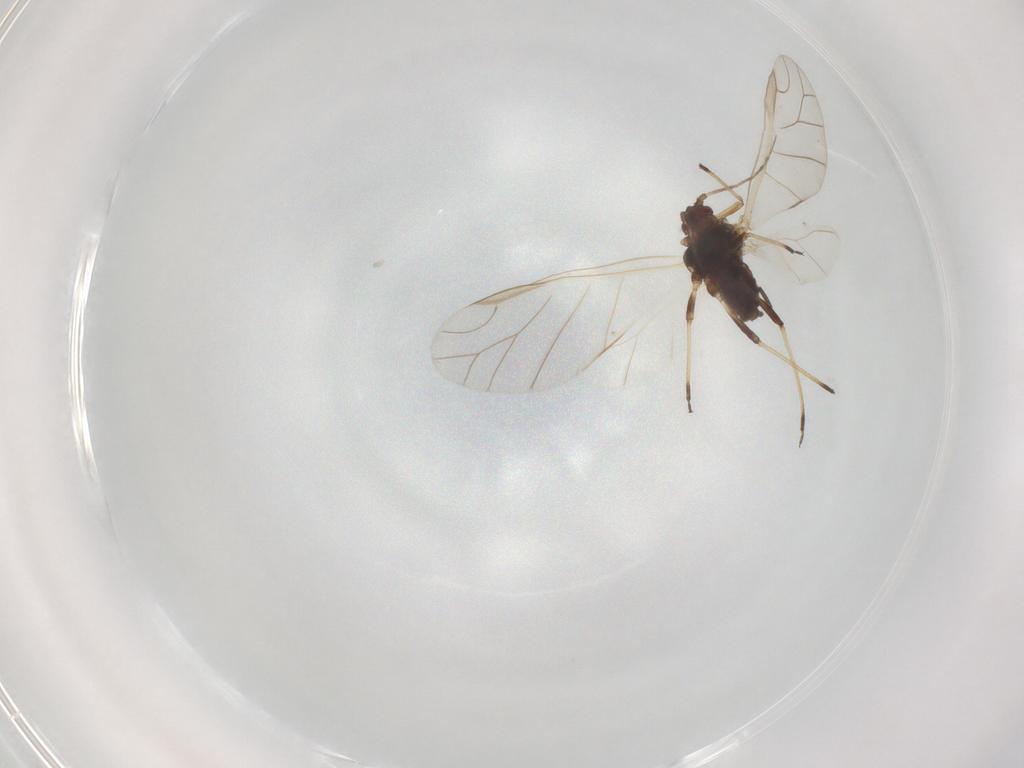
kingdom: Animalia
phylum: Arthropoda
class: Insecta
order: Hemiptera
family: Aphididae
